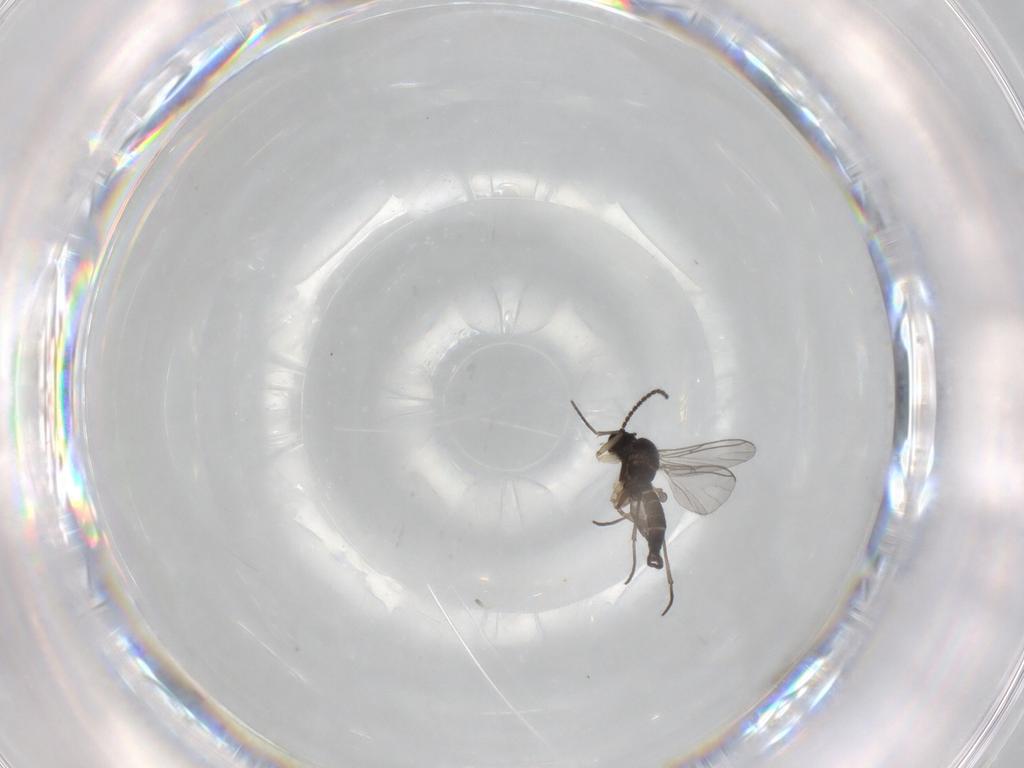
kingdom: Animalia
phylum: Arthropoda
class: Insecta
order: Diptera
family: Sciaridae
